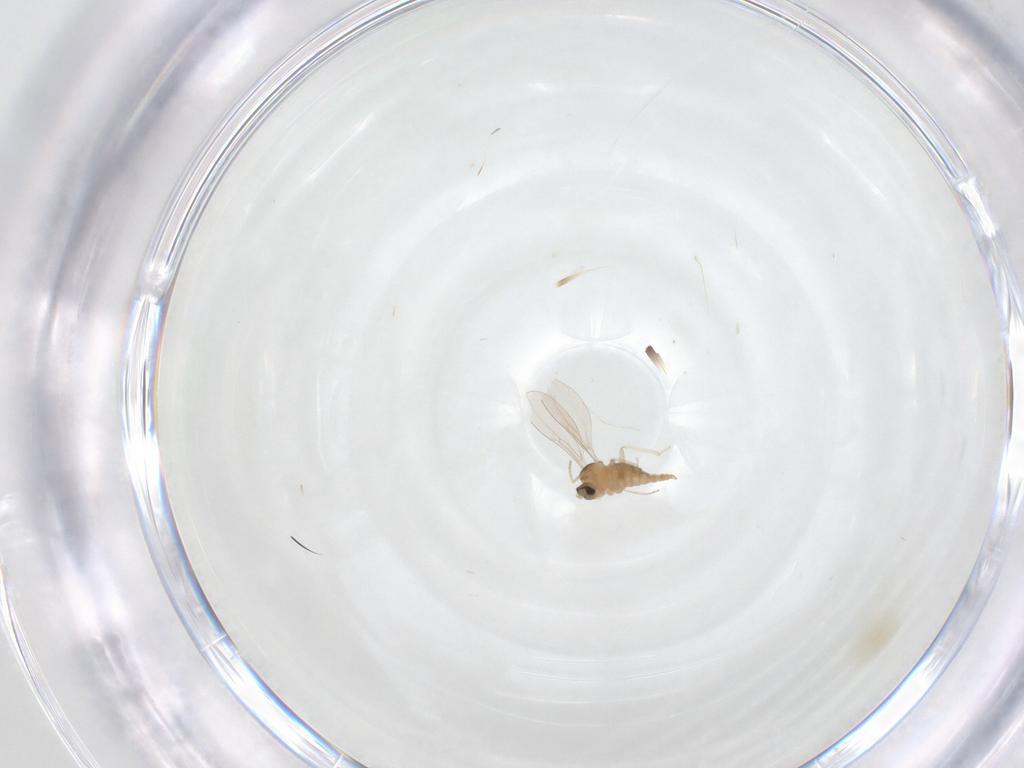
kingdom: Animalia
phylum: Arthropoda
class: Insecta
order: Diptera
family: Cecidomyiidae
